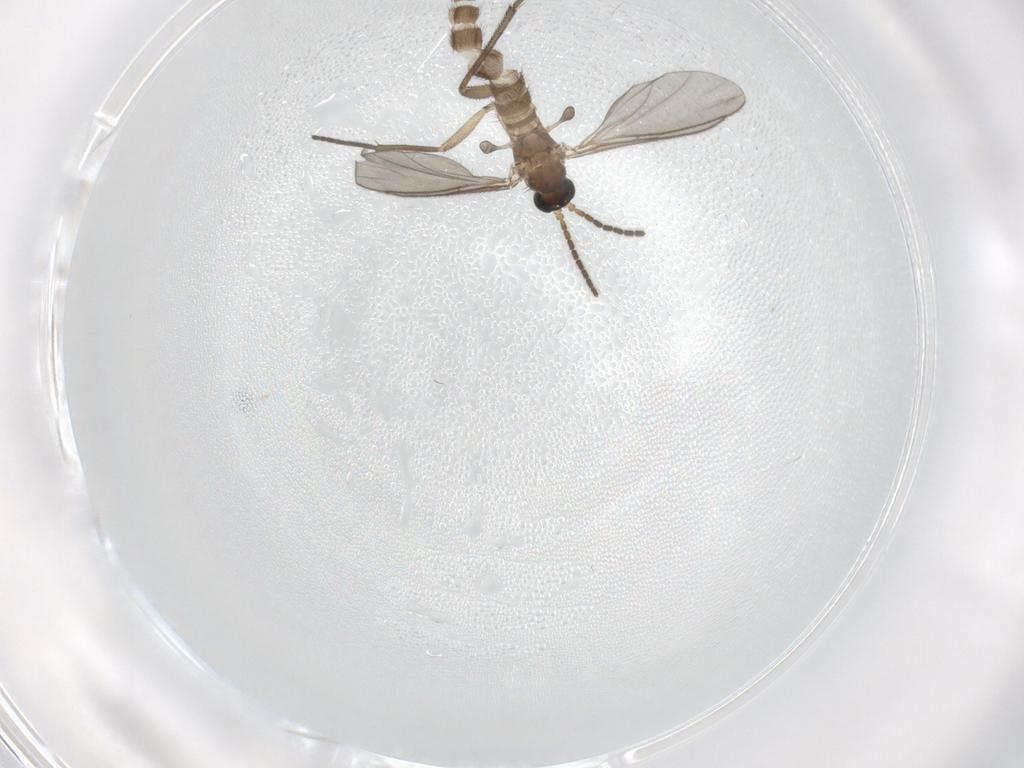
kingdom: Animalia
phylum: Arthropoda
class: Insecta
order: Diptera
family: Sciaridae
